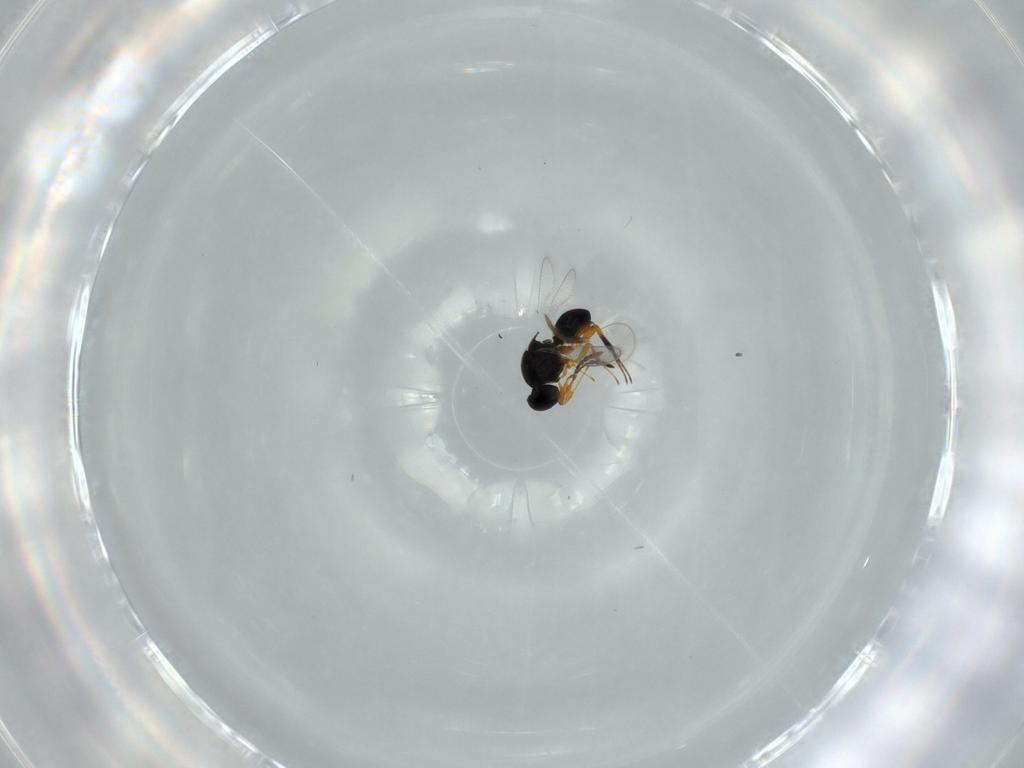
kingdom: Animalia
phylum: Arthropoda
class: Insecta
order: Hymenoptera
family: Platygastridae
